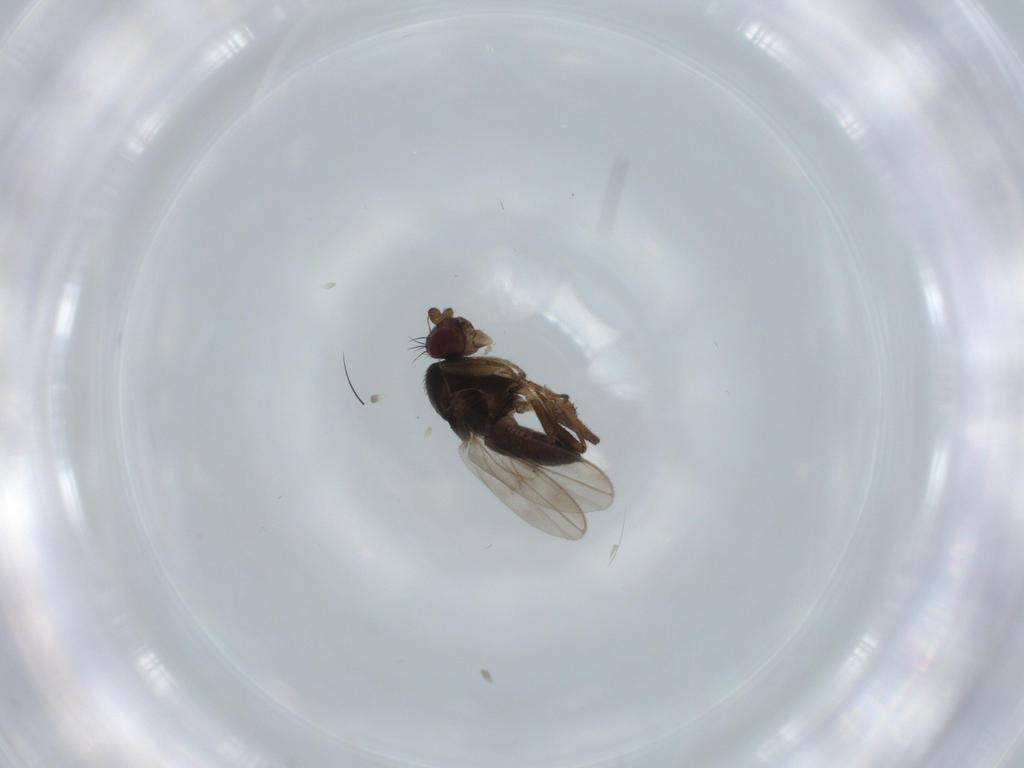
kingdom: Animalia
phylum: Arthropoda
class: Insecta
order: Diptera
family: Sphaeroceridae
